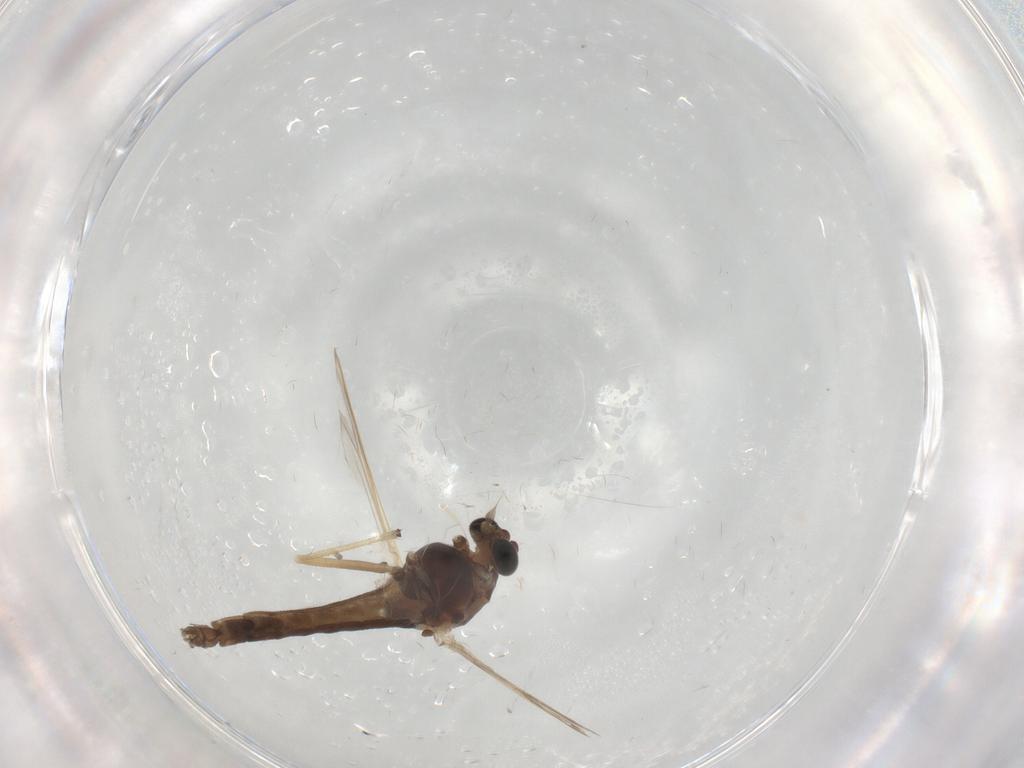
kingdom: Animalia
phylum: Arthropoda
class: Insecta
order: Diptera
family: Chironomidae
